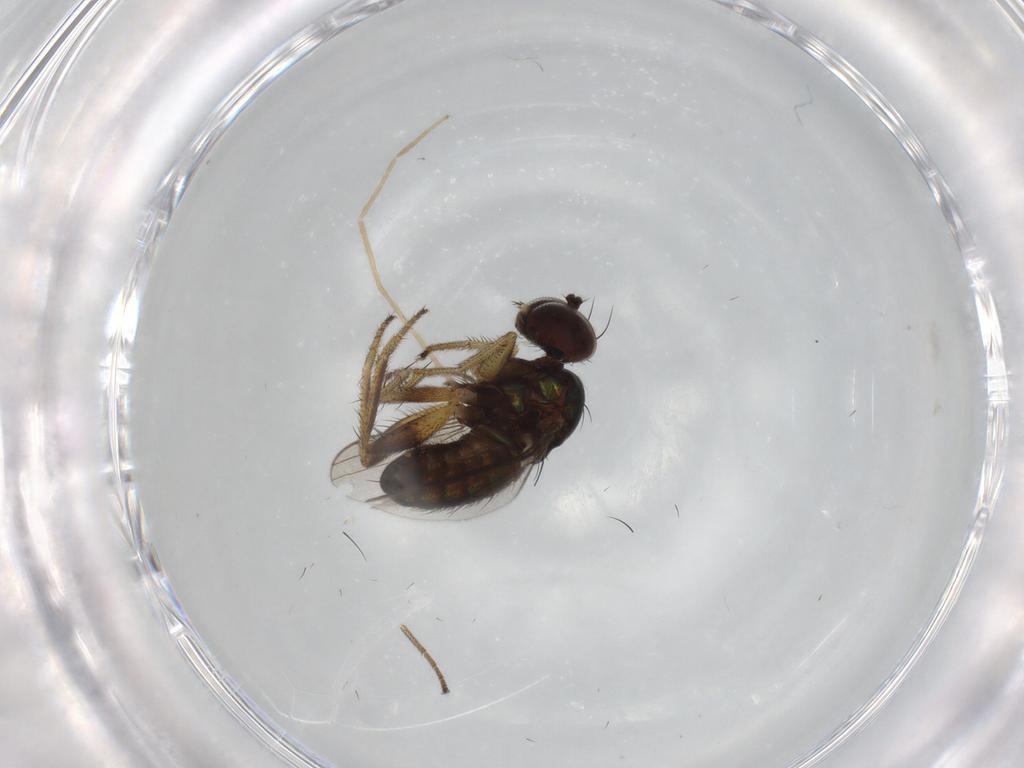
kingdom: Animalia
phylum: Arthropoda
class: Insecta
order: Diptera
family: Dolichopodidae
